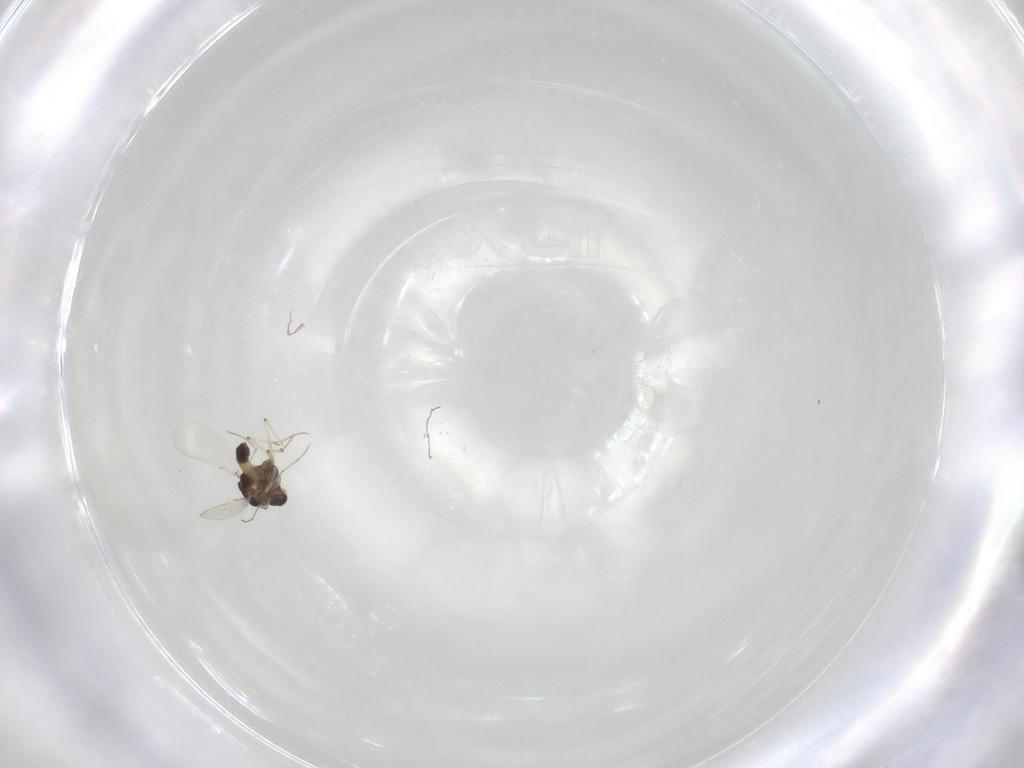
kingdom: Animalia
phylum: Arthropoda
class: Insecta
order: Diptera
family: Chironomidae
